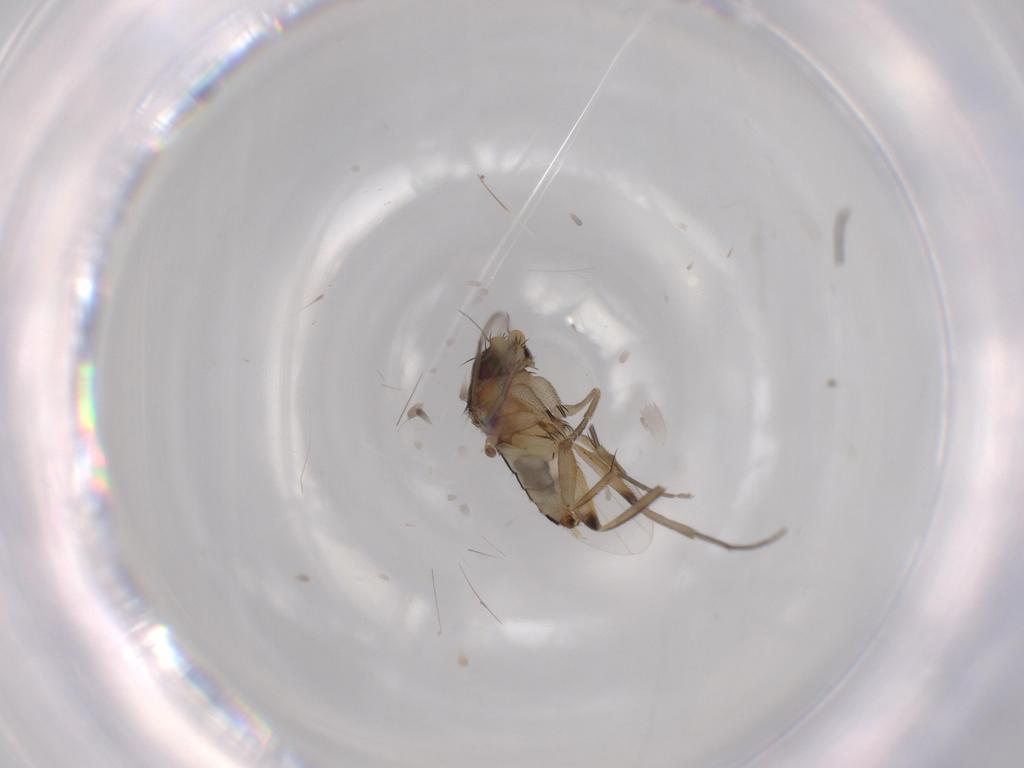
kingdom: Animalia
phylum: Arthropoda
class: Insecta
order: Diptera
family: Phoridae
